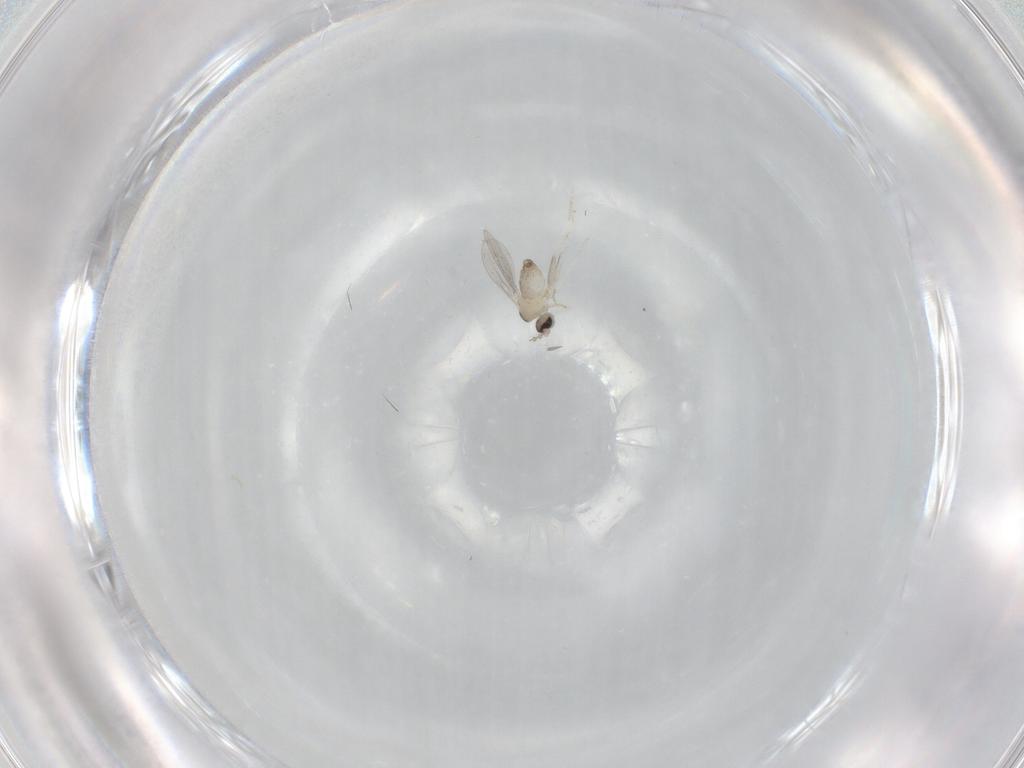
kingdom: Animalia
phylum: Arthropoda
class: Insecta
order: Diptera
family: Cecidomyiidae
